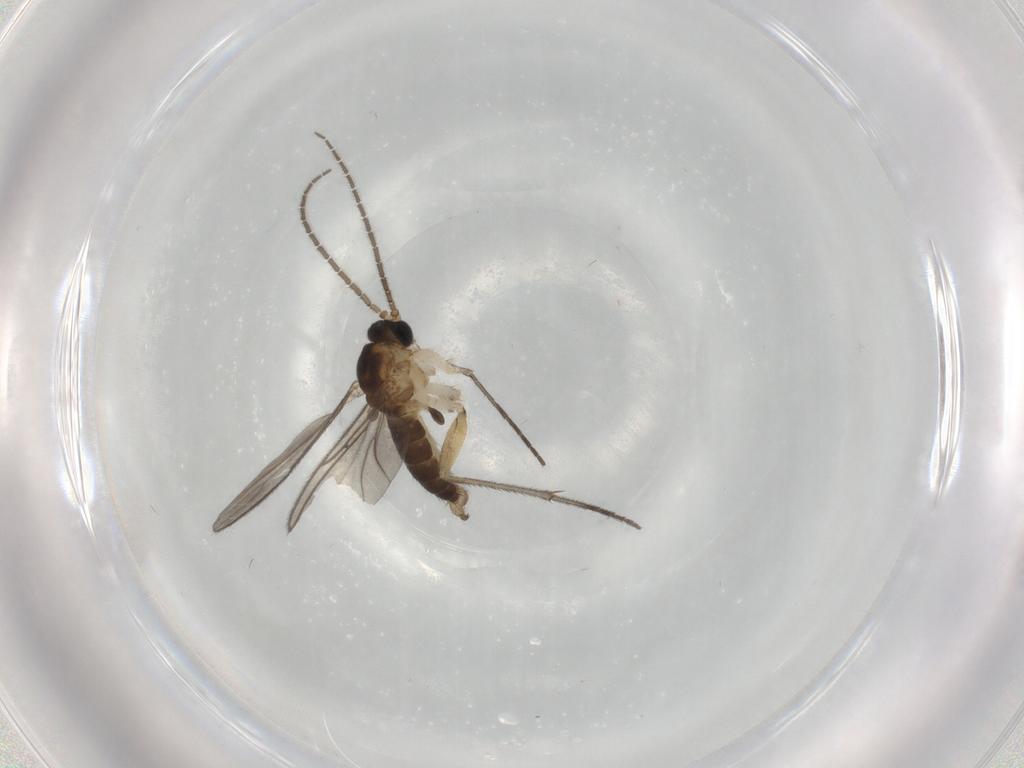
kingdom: Animalia
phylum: Arthropoda
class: Insecta
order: Diptera
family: Sciaridae
